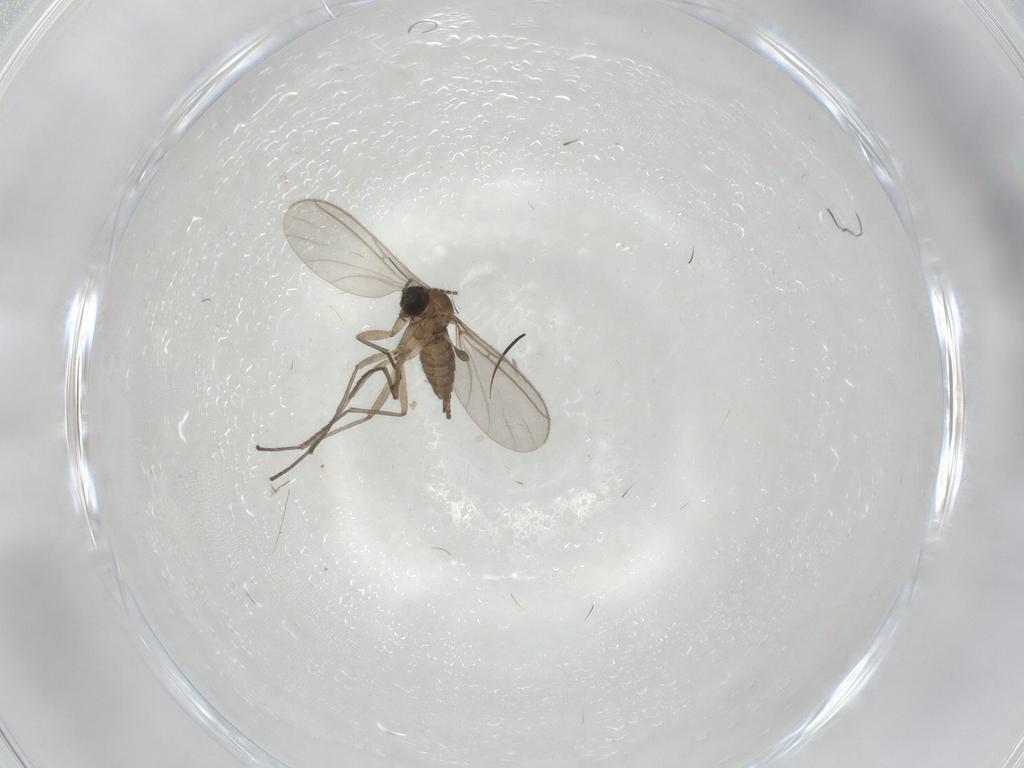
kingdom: Animalia
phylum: Arthropoda
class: Insecta
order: Diptera
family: Sciaridae
